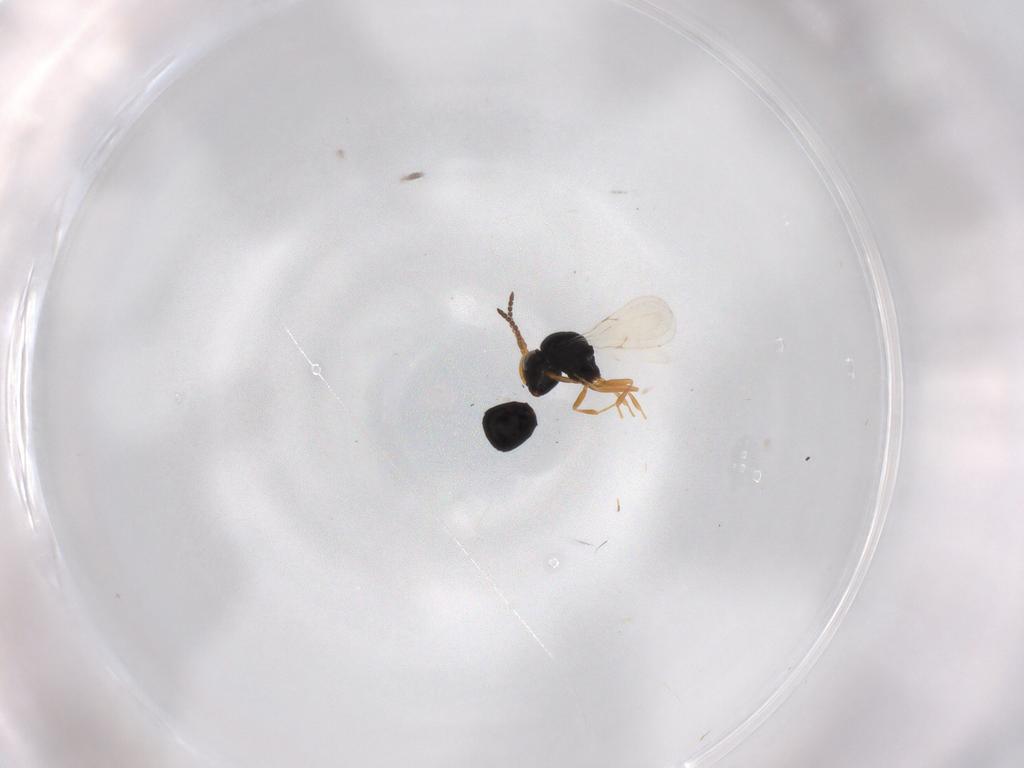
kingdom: Animalia
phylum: Arthropoda
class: Insecta
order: Hymenoptera
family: Scelionidae
